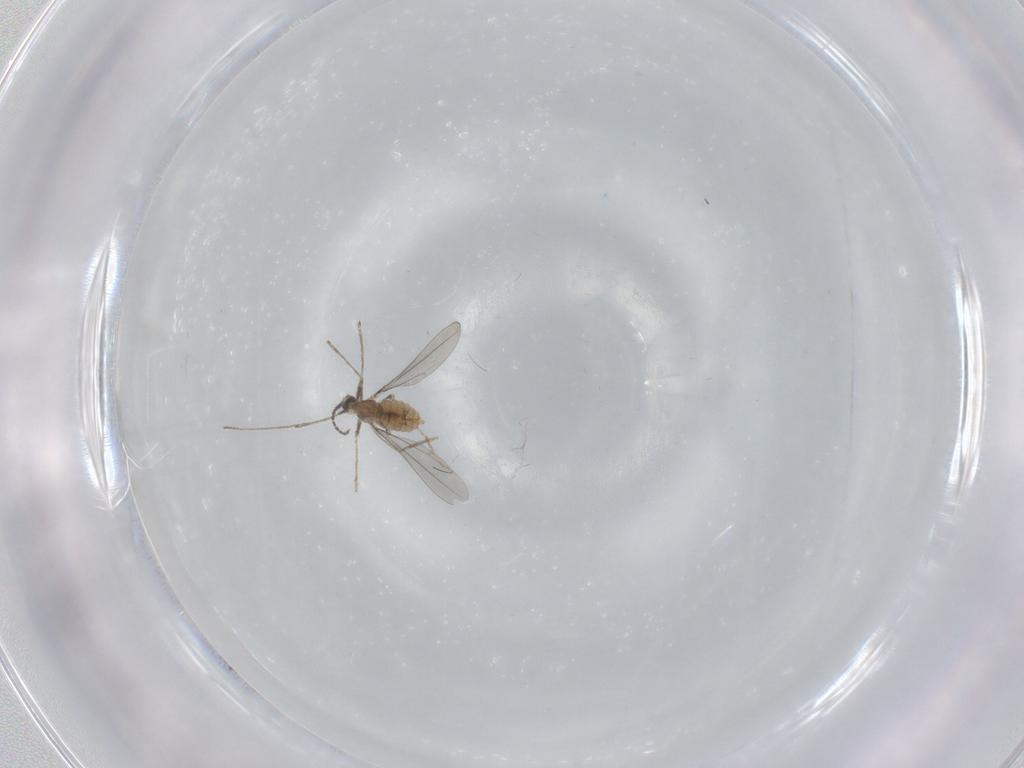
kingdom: Animalia
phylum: Arthropoda
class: Insecta
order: Diptera
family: Cecidomyiidae
